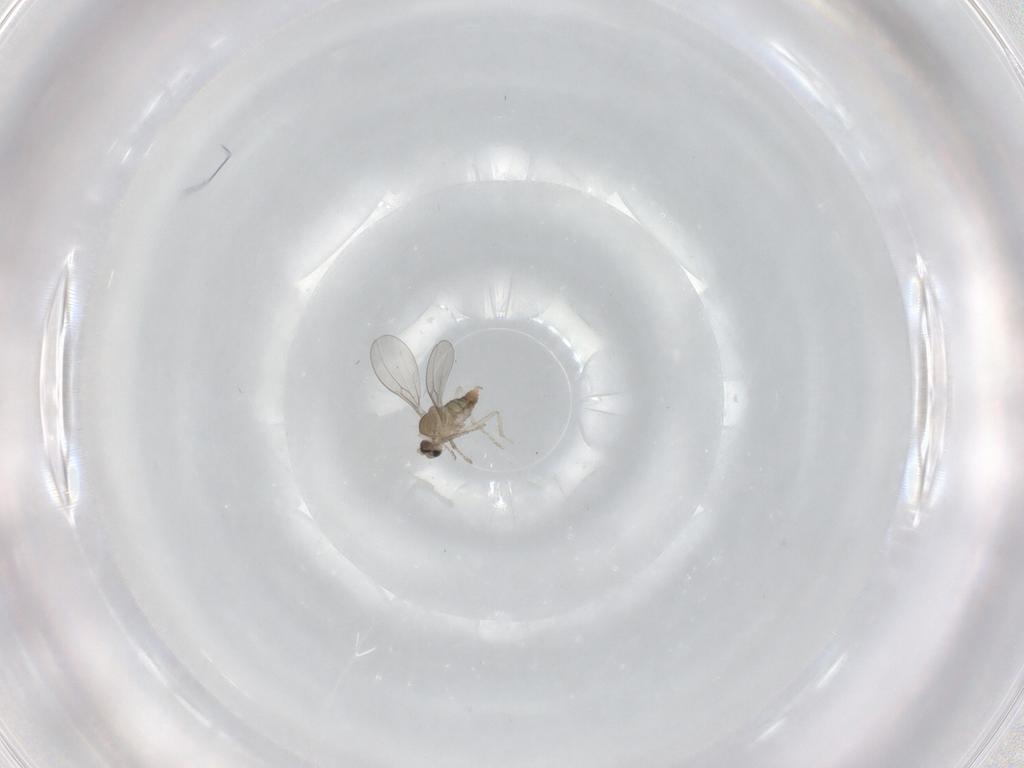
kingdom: Animalia
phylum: Arthropoda
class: Insecta
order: Diptera
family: Cecidomyiidae
